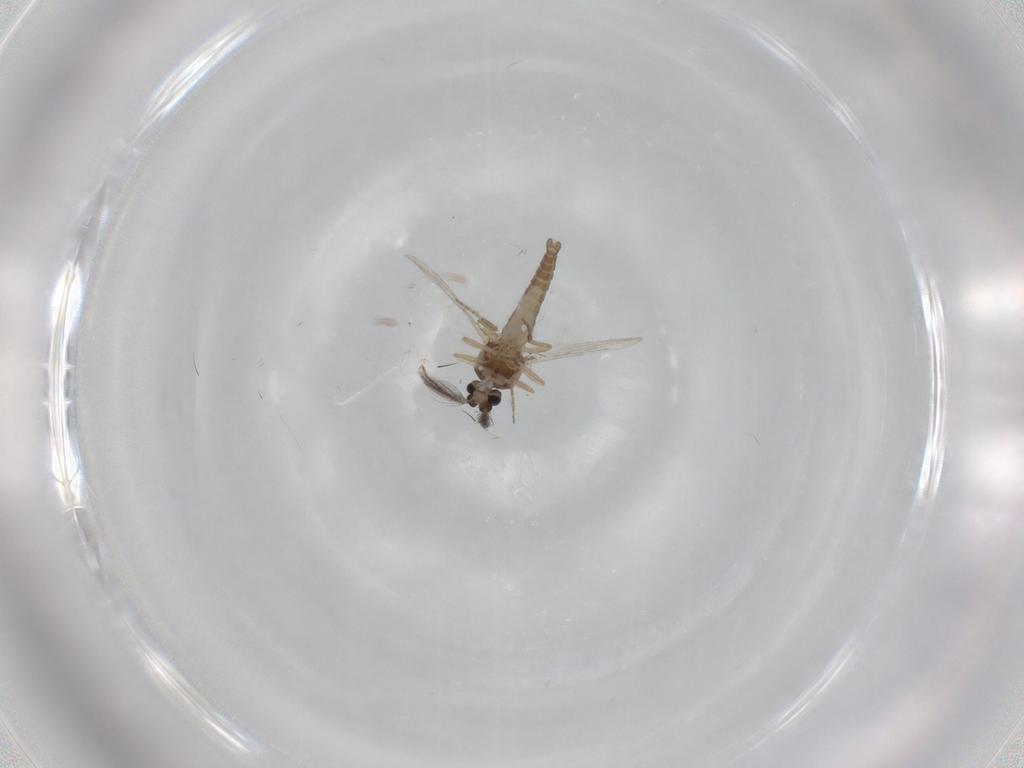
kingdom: Animalia
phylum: Arthropoda
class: Insecta
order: Diptera
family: Ceratopogonidae
